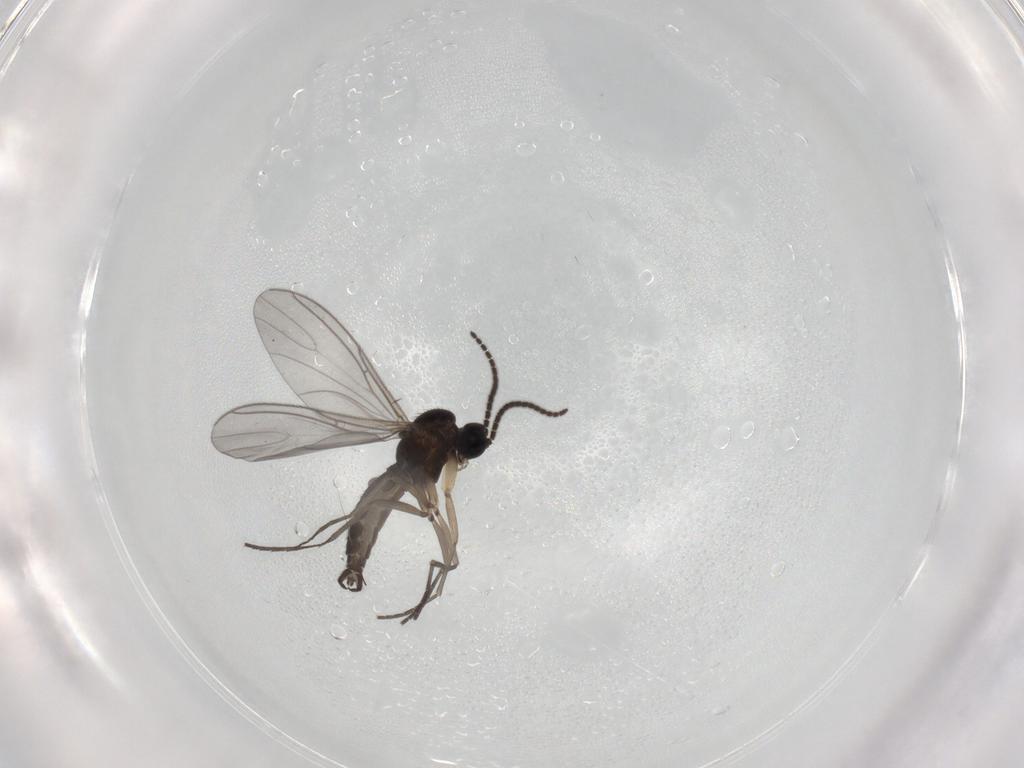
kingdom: Animalia
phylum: Arthropoda
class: Insecta
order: Diptera
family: Sciaridae
